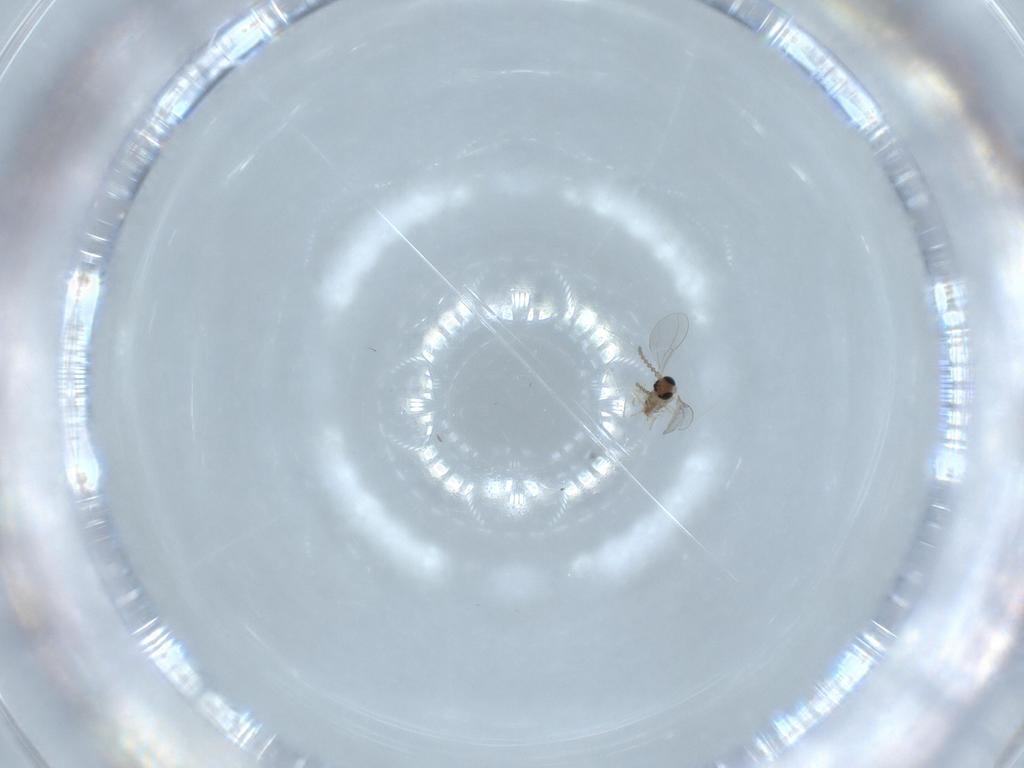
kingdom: Animalia
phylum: Arthropoda
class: Insecta
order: Diptera
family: Cecidomyiidae
